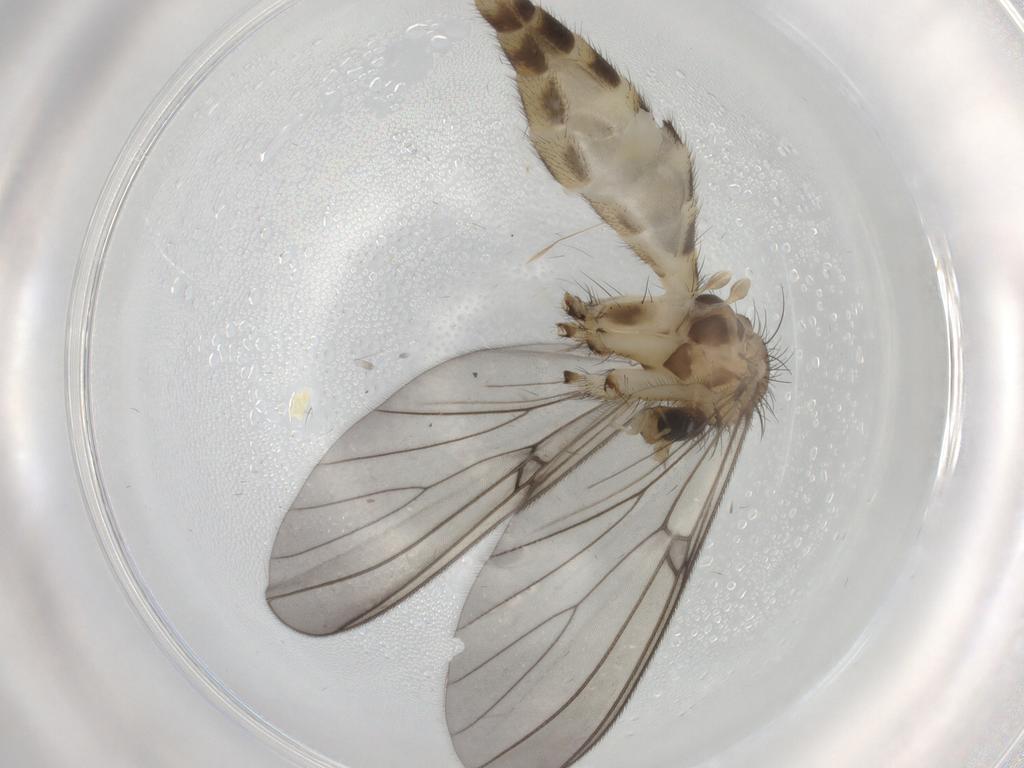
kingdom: Animalia
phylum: Arthropoda
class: Insecta
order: Diptera
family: Mycetophilidae
